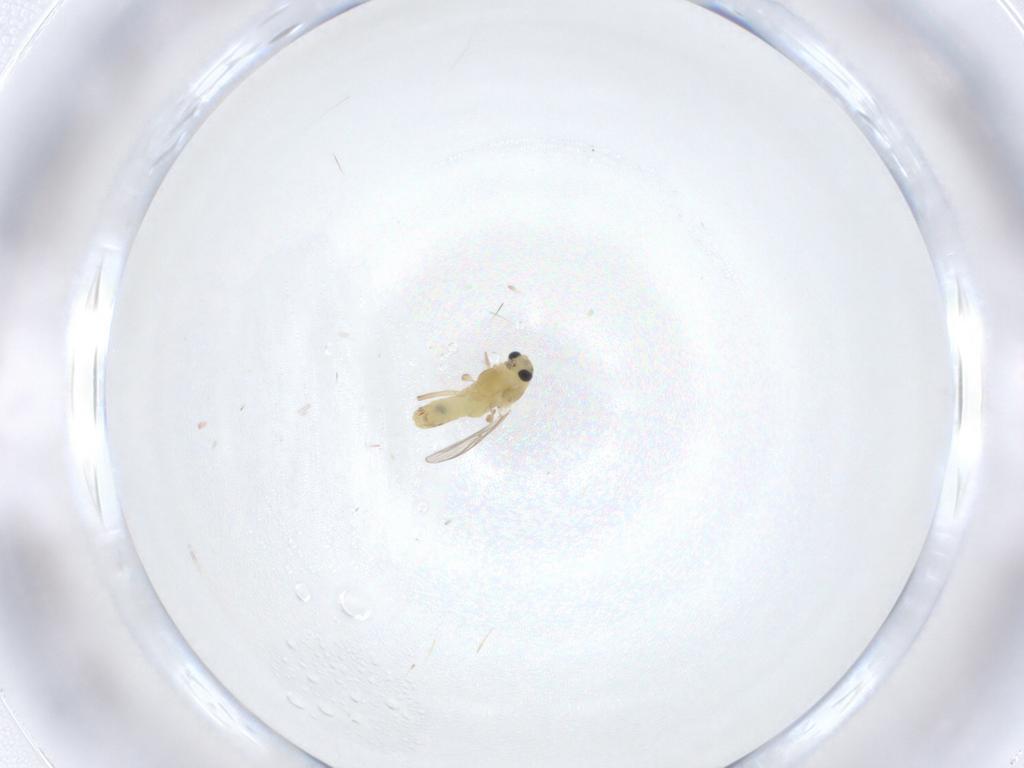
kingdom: Animalia
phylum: Arthropoda
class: Insecta
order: Diptera
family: Chironomidae
